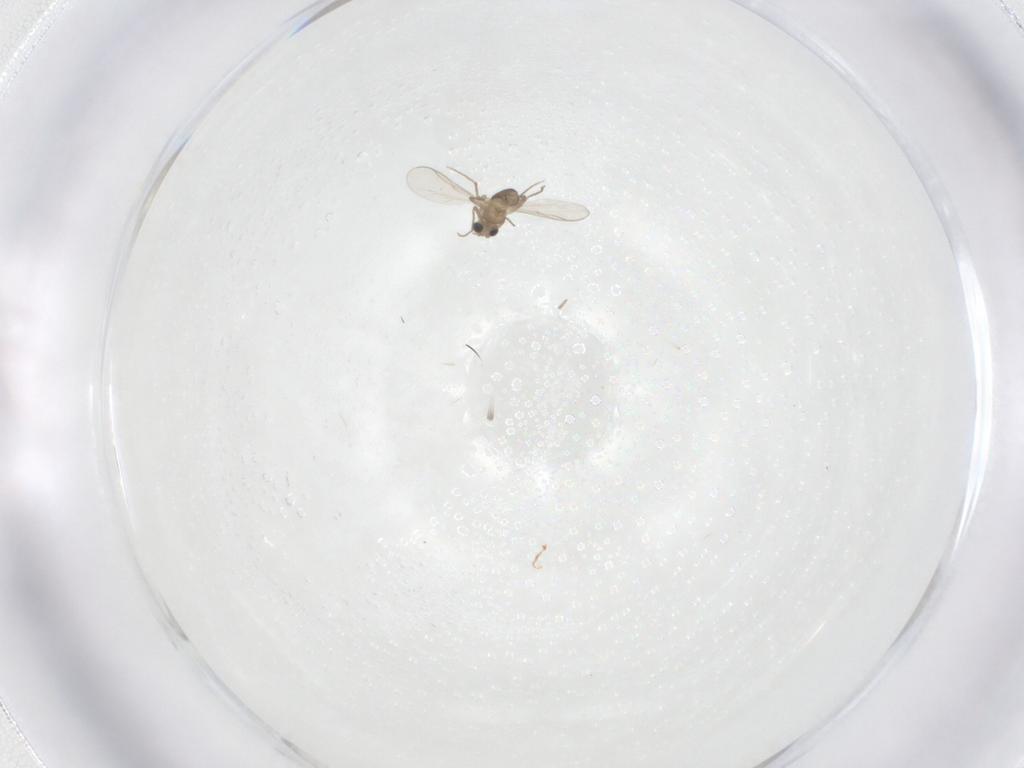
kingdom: Animalia
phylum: Arthropoda
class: Insecta
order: Diptera
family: Chironomidae
